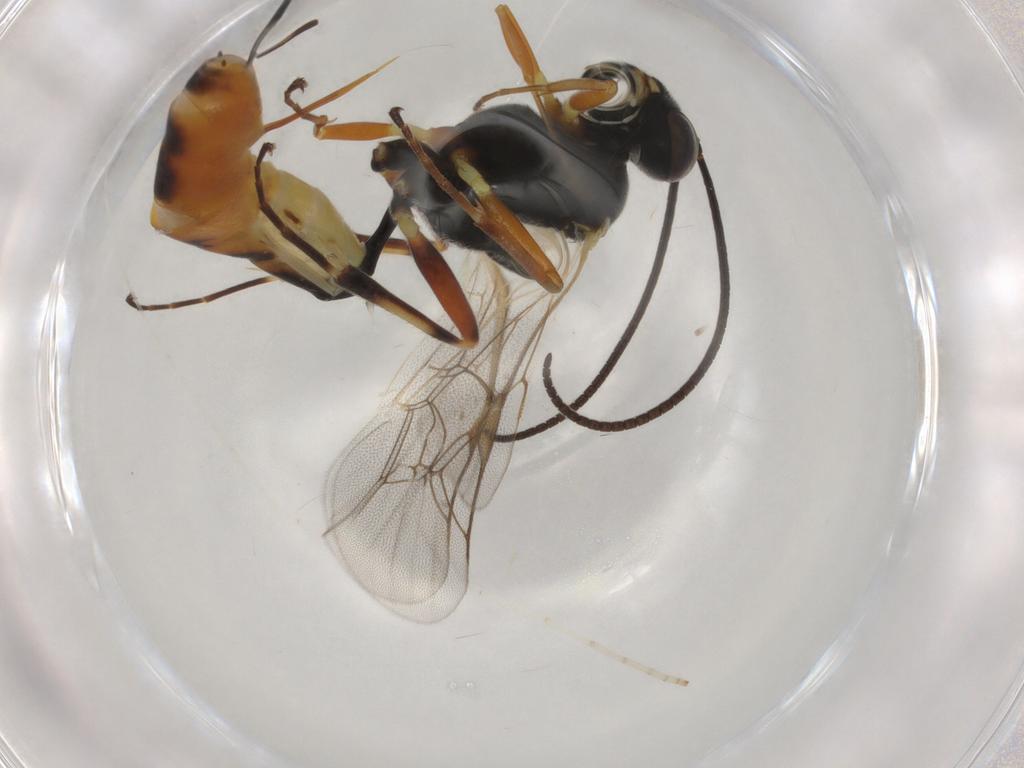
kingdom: Animalia
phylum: Arthropoda
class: Insecta
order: Hymenoptera
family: Ichneumonidae
